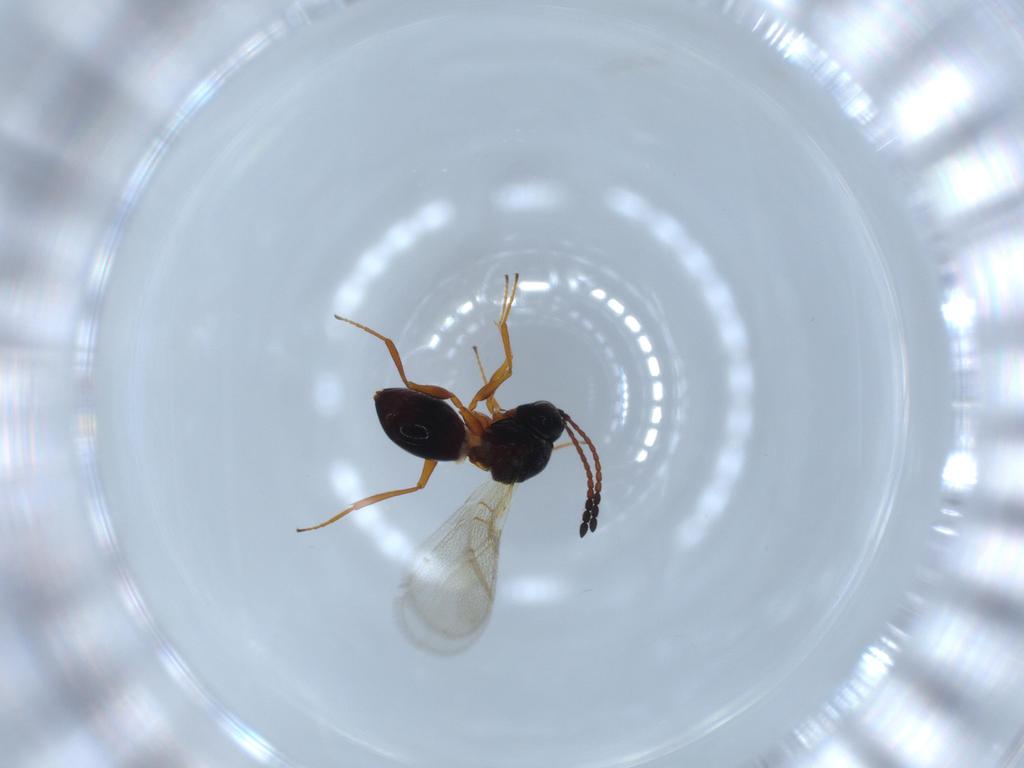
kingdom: Animalia
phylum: Arthropoda
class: Insecta
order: Hymenoptera
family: Figitidae
